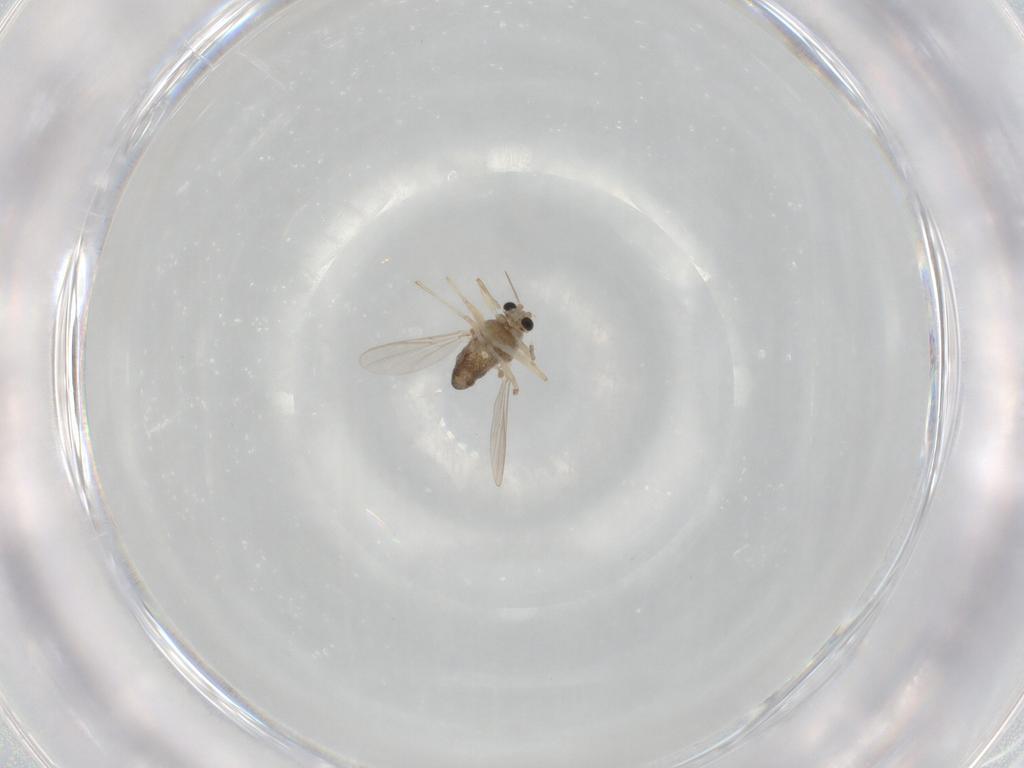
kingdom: Animalia
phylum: Arthropoda
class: Insecta
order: Diptera
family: Chironomidae
